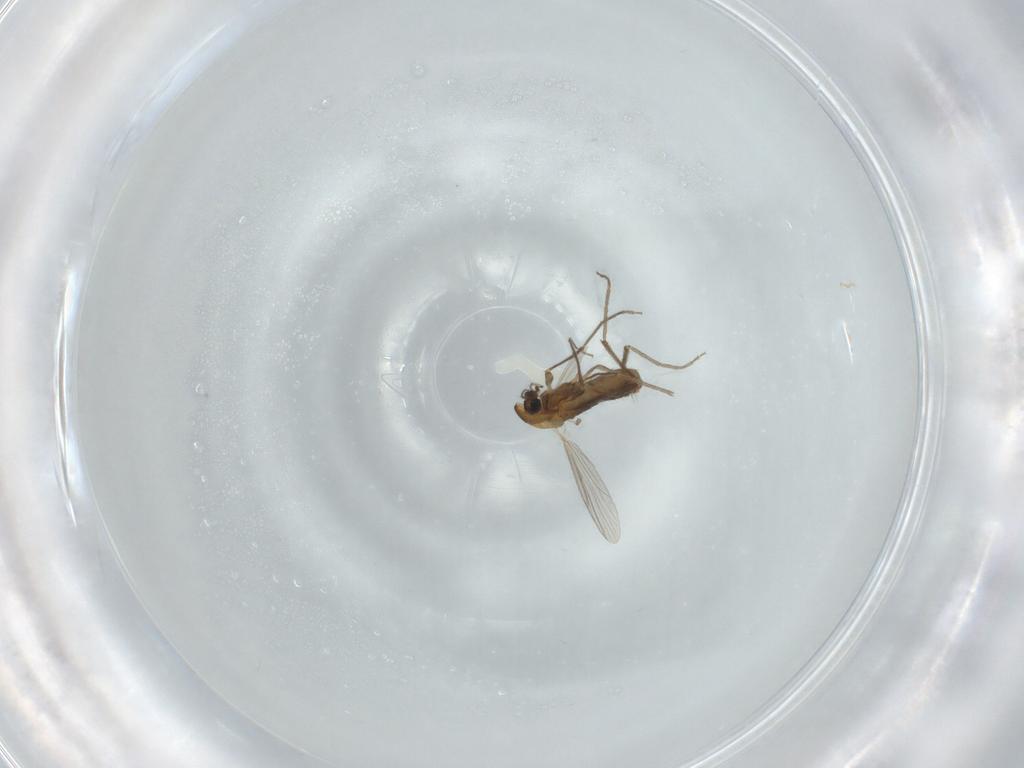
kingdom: Animalia
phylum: Arthropoda
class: Insecta
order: Diptera
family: Chironomidae
